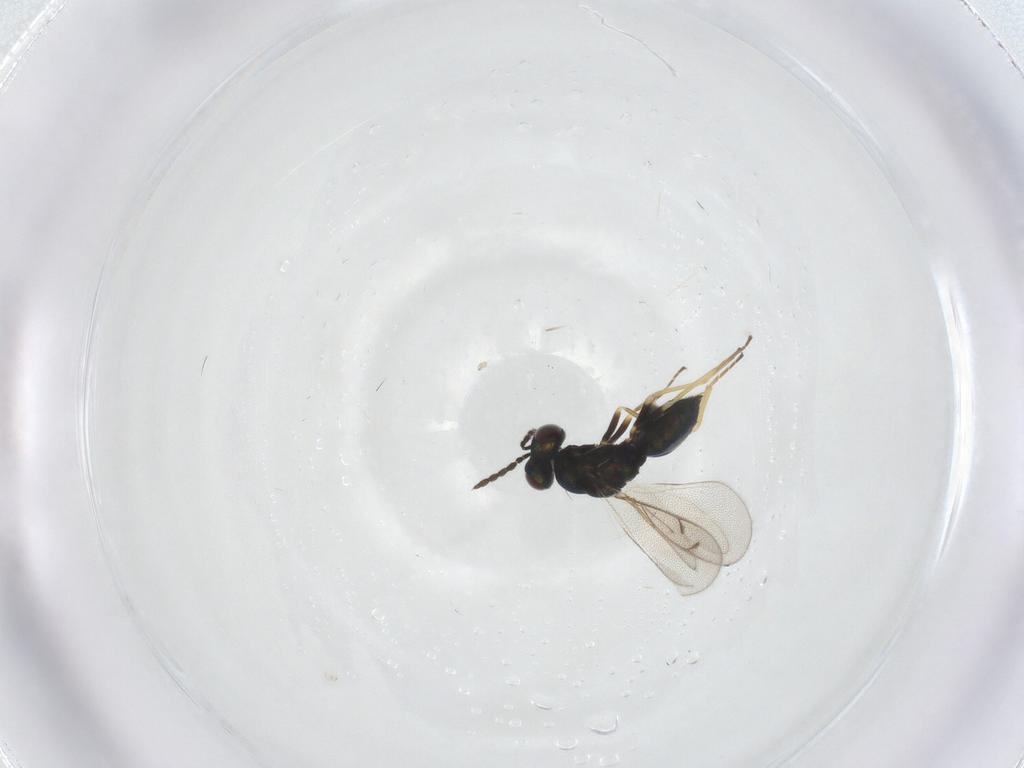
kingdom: Animalia
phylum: Arthropoda
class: Insecta
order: Hymenoptera
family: Eulophidae
